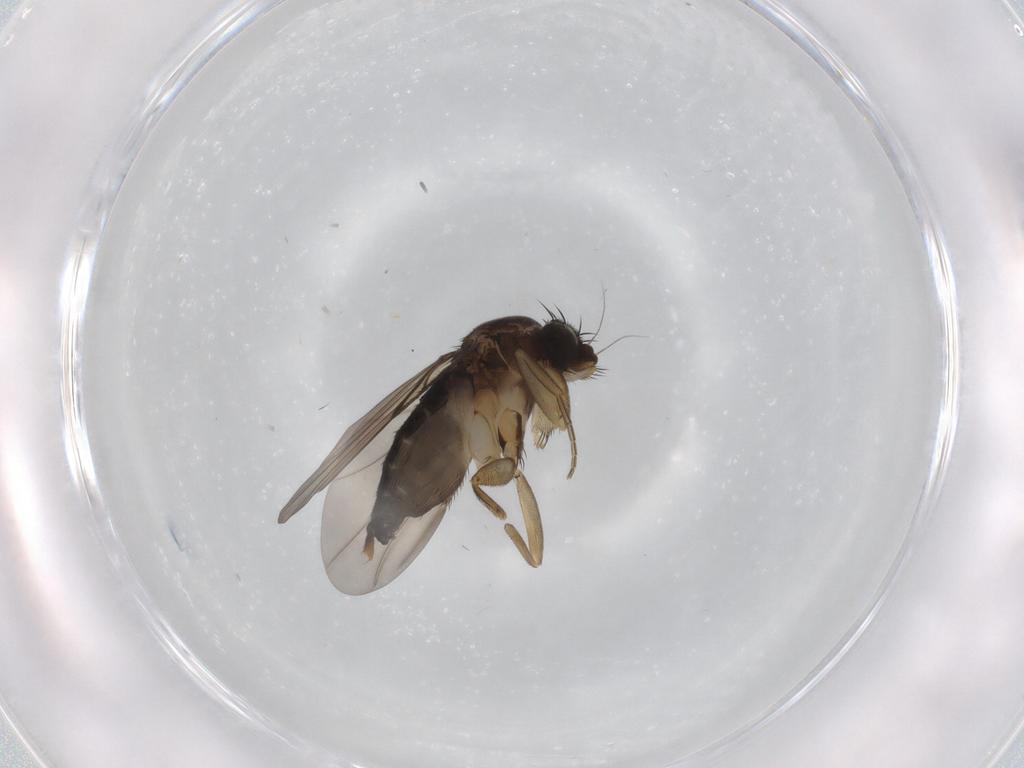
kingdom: Animalia
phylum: Arthropoda
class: Insecta
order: Diptera
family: Phoridae
